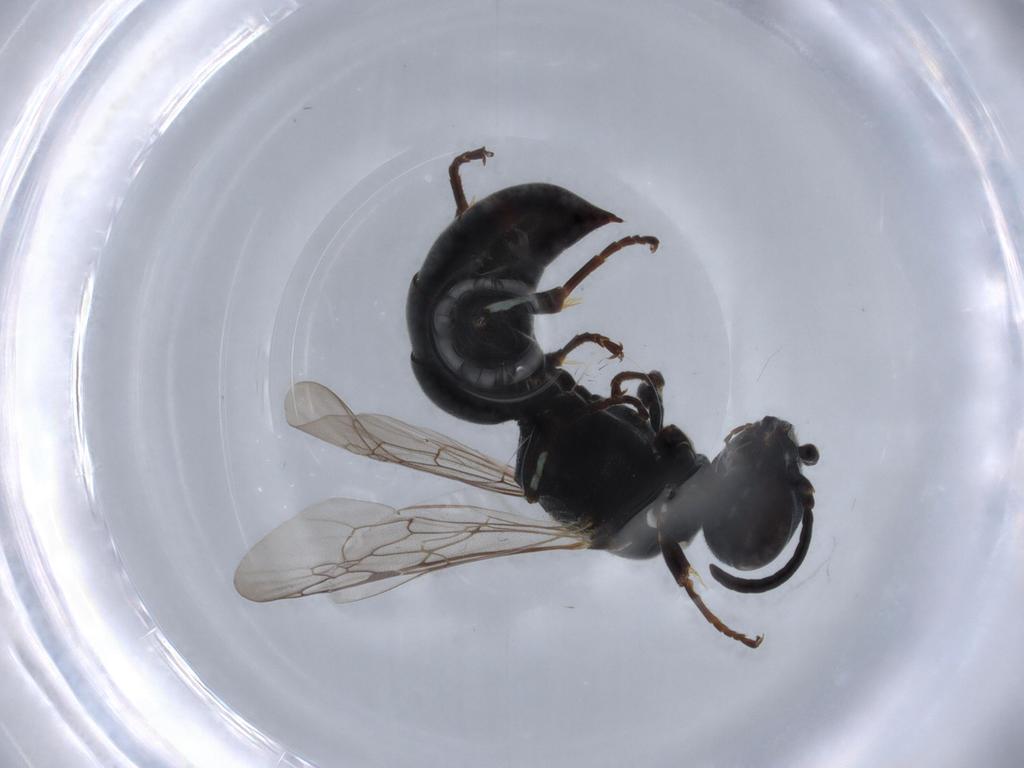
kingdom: Animalia
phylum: Arthropoda
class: Insecta
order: Hymenoptera
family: Crabronidae
